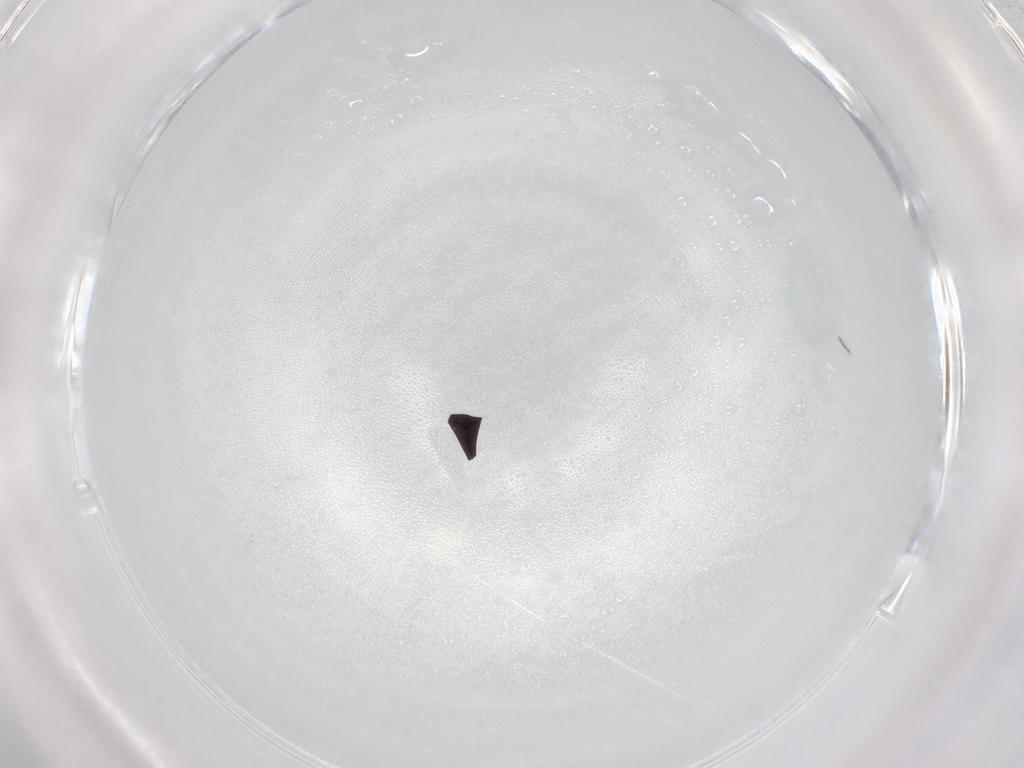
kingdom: Animalia
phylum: Arthropoda
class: Insecta
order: Diptera
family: Cecidomyiidae
